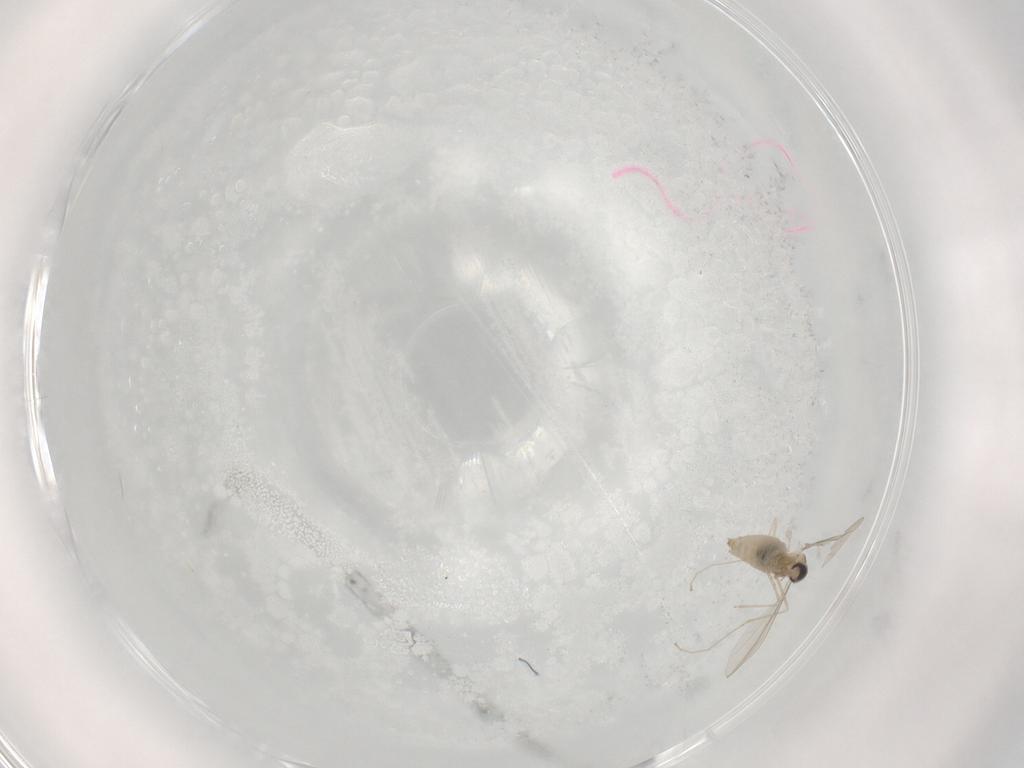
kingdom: Animalia
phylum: Arthropoda
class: Insecta
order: Diptera
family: Cecidomyiidae
